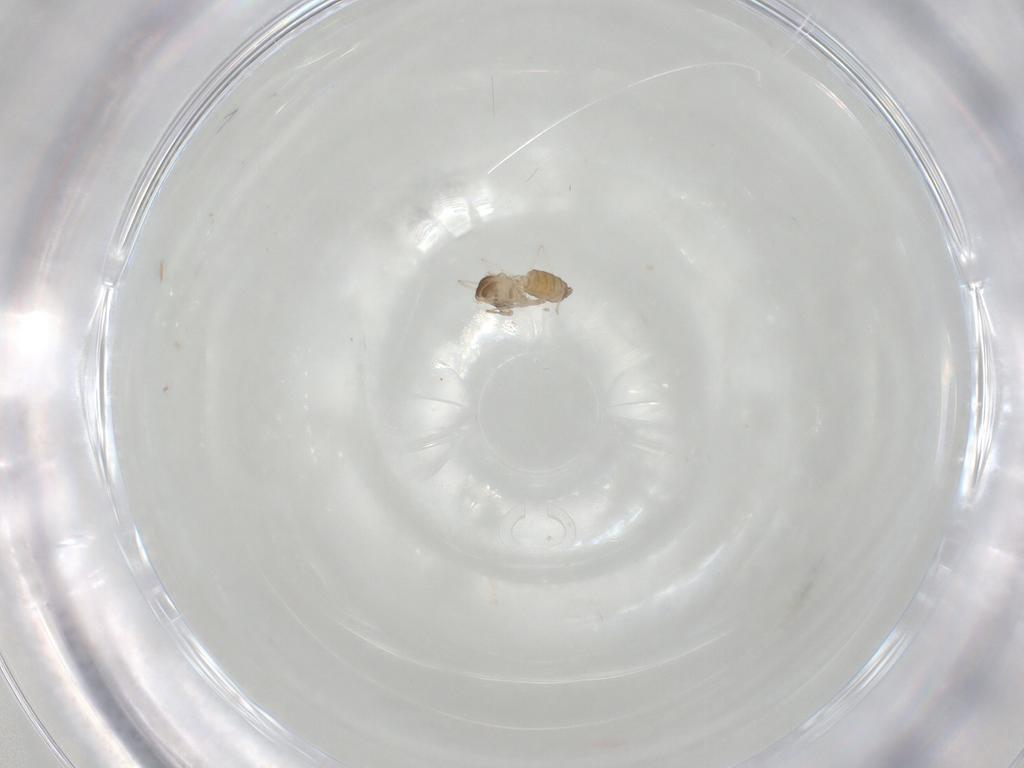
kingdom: Animalia
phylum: Arthropoda
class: Insecta
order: Diptera
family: Cecidomyiidae
